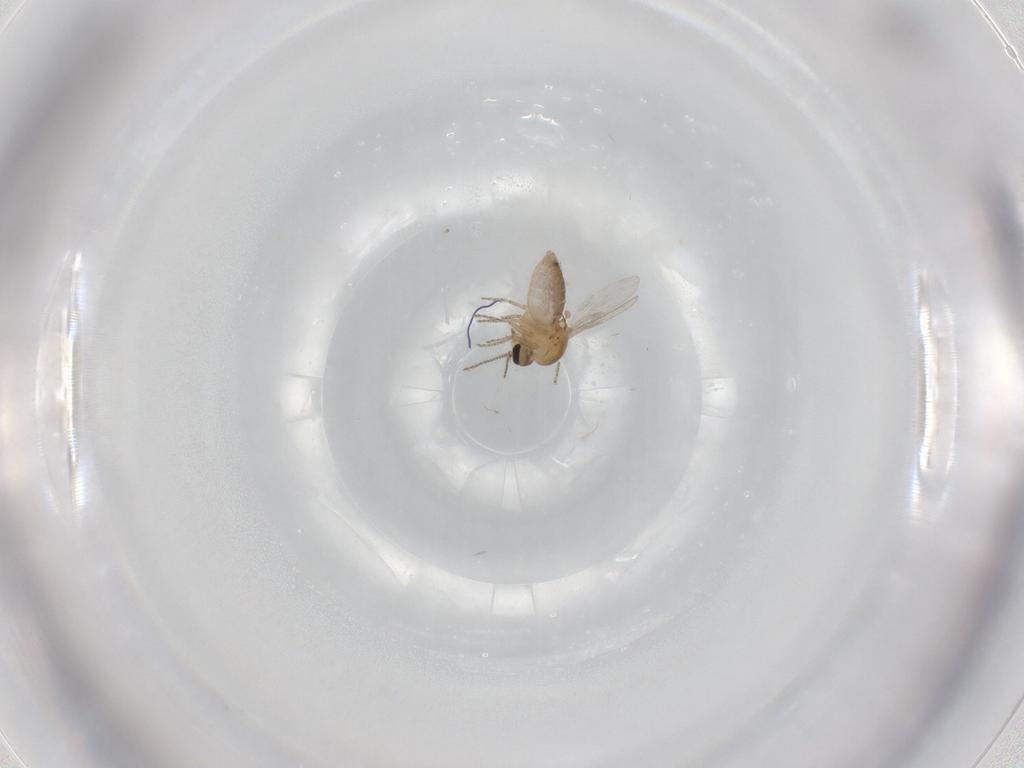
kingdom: Animalia
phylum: Arthropoda
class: Insecta
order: Diptera
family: Ceratopogonidae
